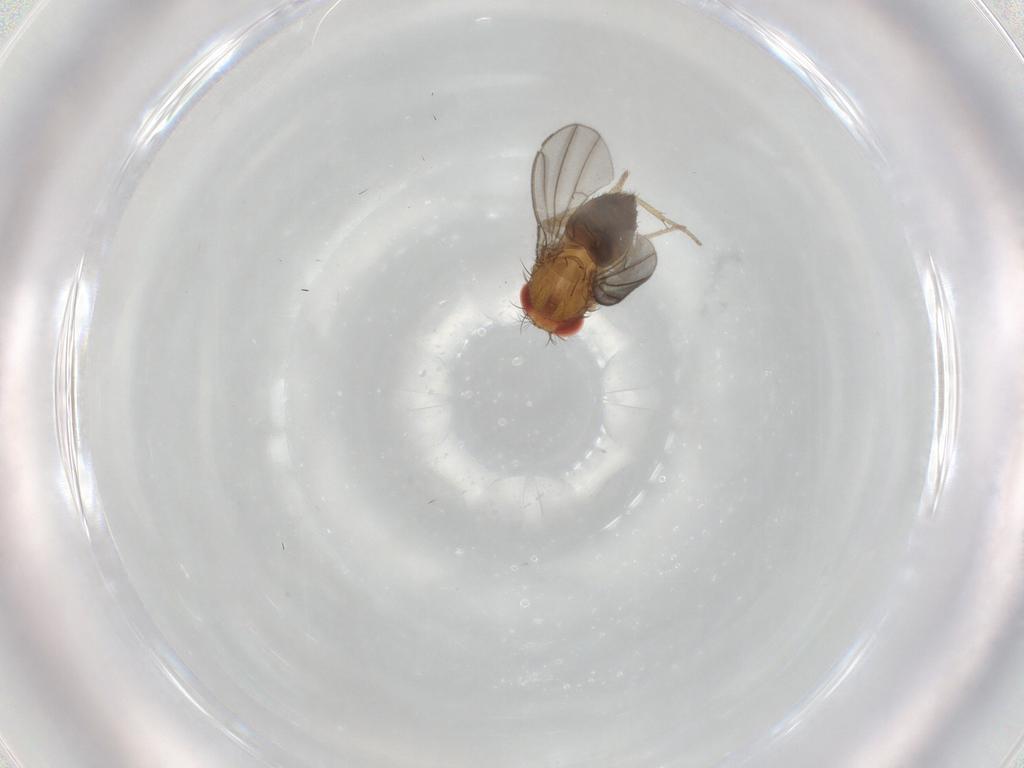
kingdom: Animalia
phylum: Arthropoda
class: Insecta
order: Diptera
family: Drosophilidae
